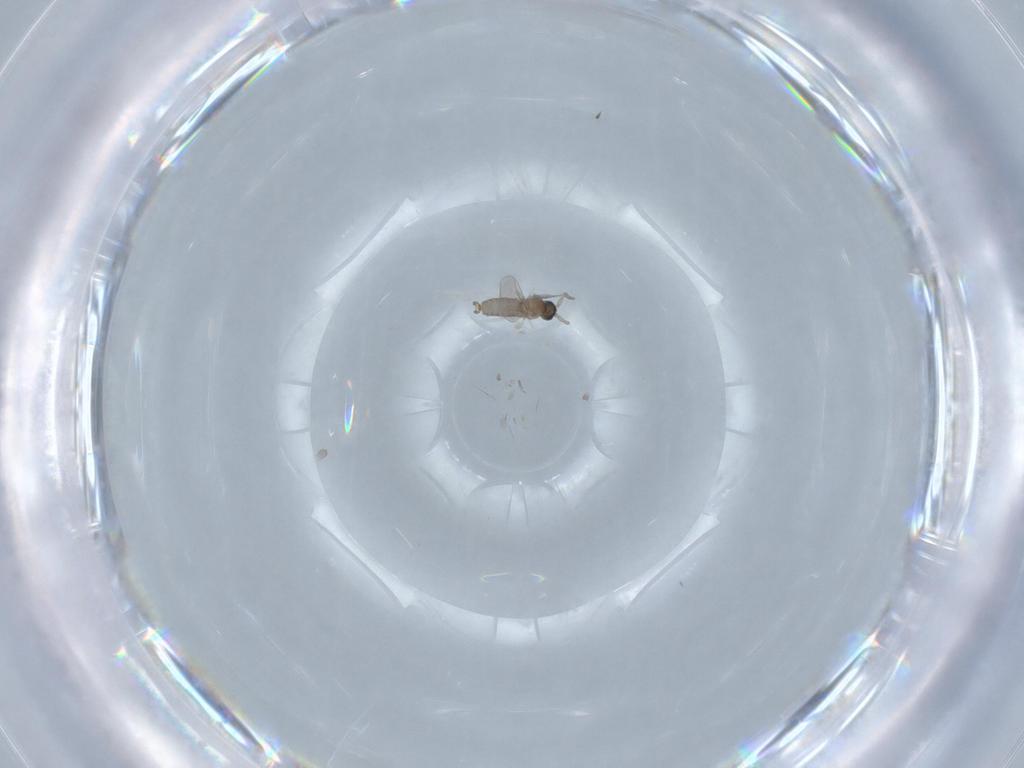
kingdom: Animalia
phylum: Arthropoda
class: Insecta
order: Diptera
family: Cecidomyiidae
